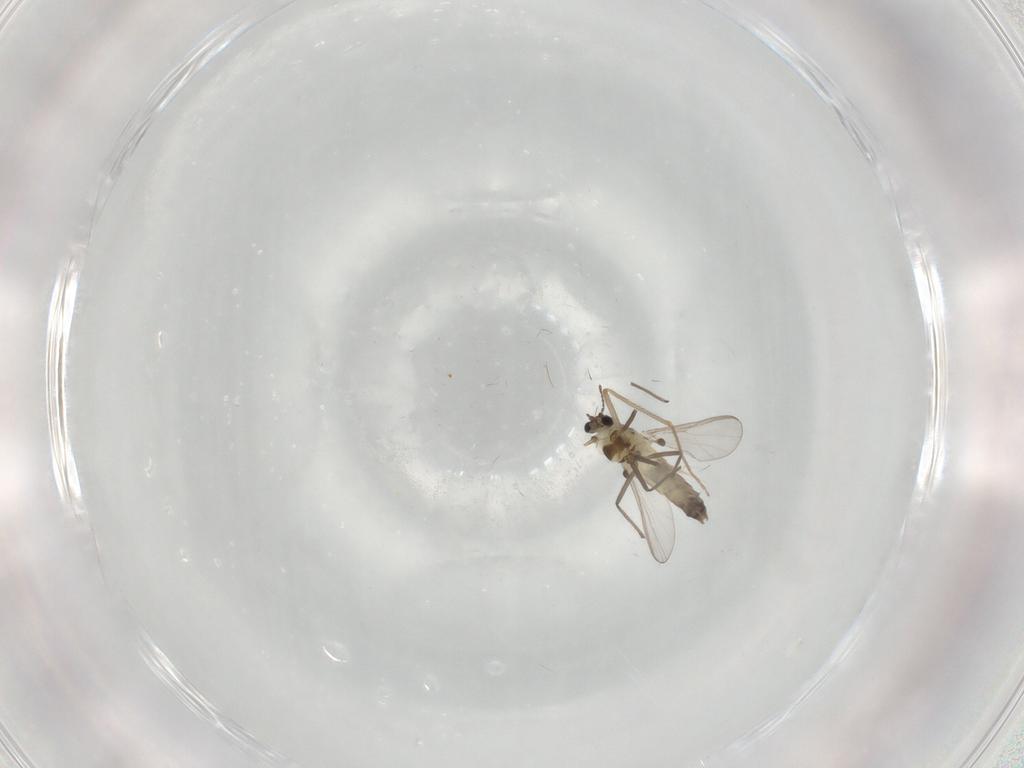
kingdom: Animalia
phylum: Arthropoda
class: Insecta
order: Diptera
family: Chironomidae
